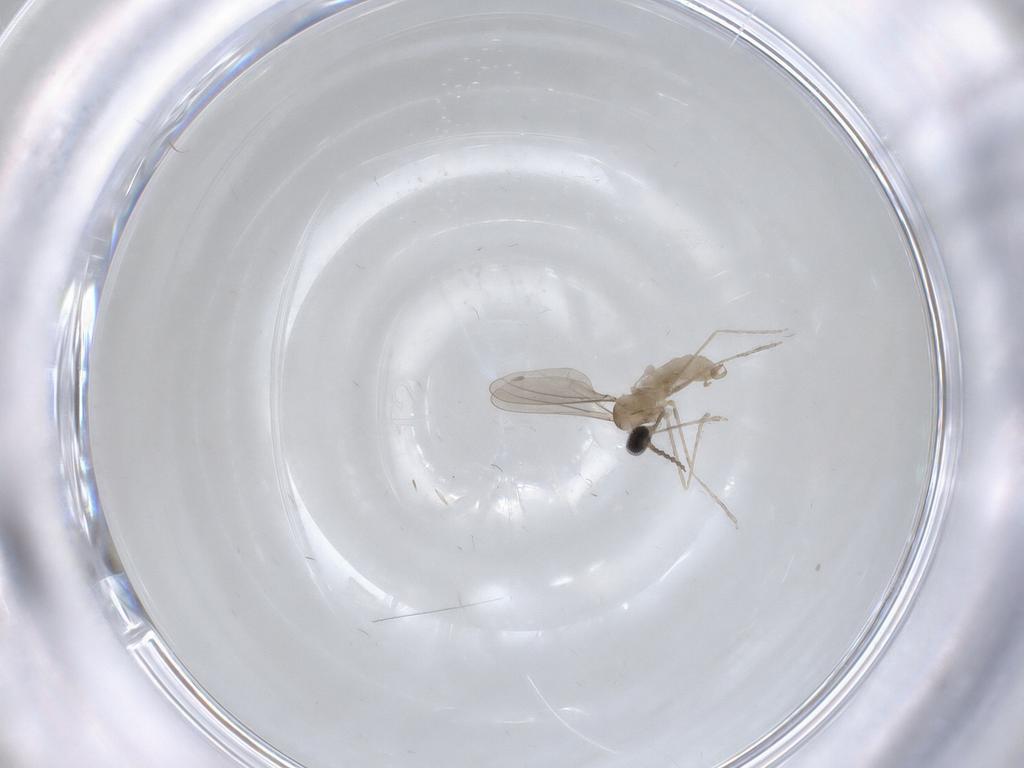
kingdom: Animalia
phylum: Arthropoda
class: Insecta
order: Diptera
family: Cecidomyiidae
